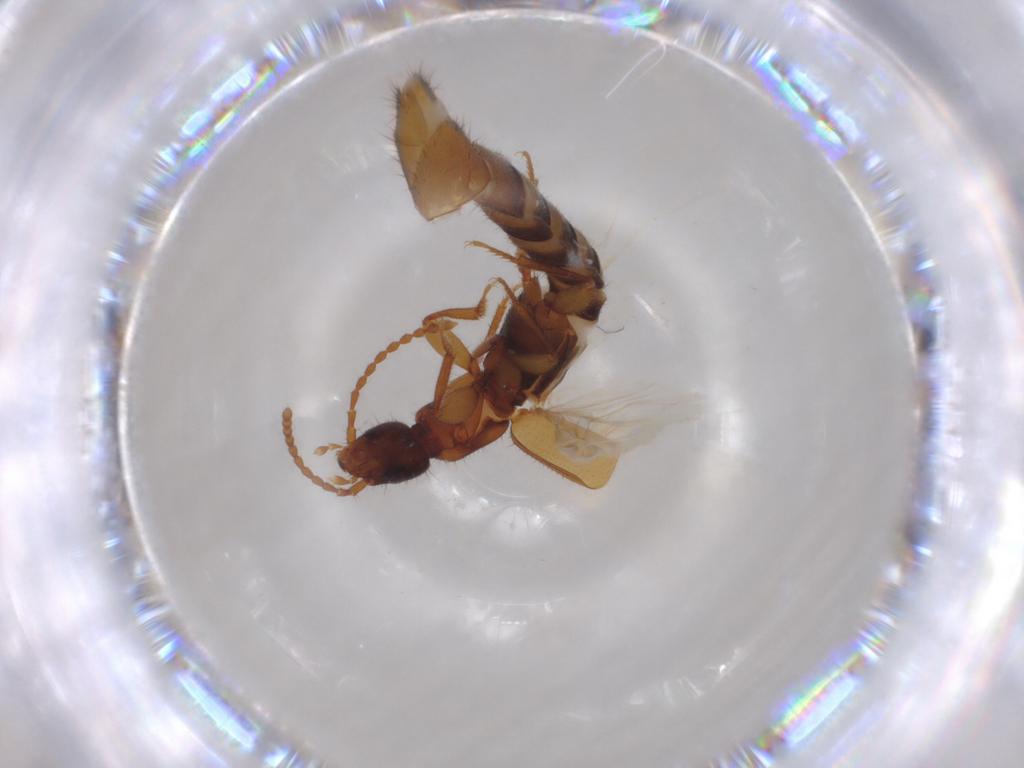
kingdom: Animalia
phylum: Arthropoda
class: Insecta
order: Coleoptera
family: Staphylinidae
